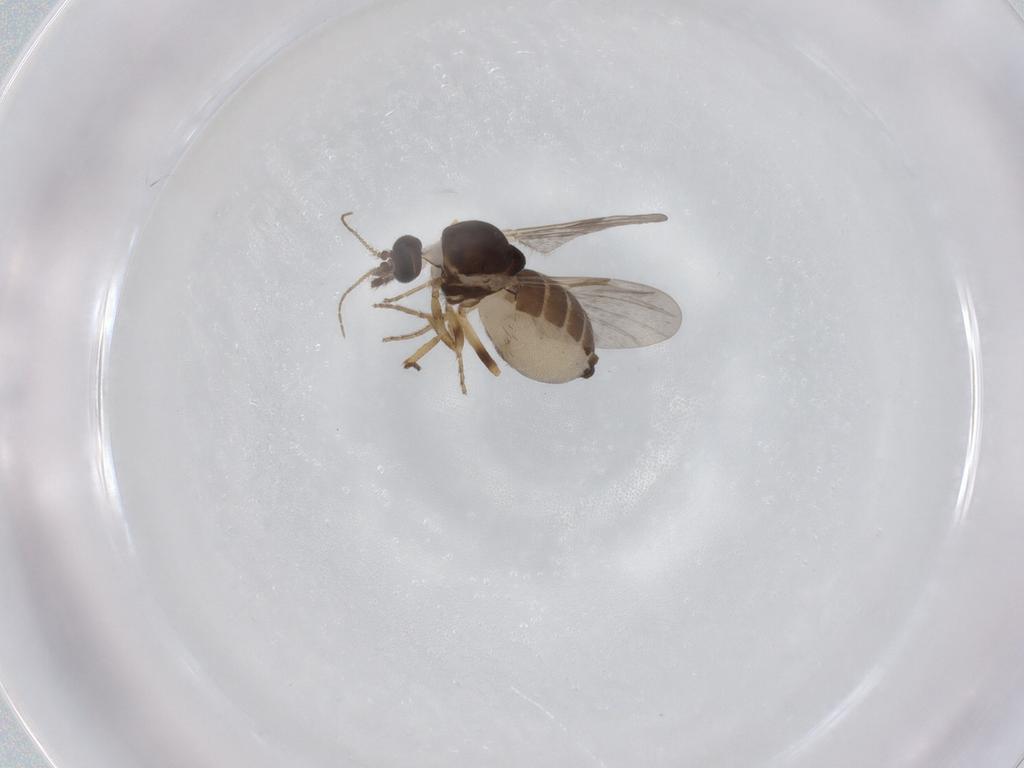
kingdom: Animalia
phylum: Arthropoda
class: Insecta
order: Diptera
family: Ceratopogonidae
